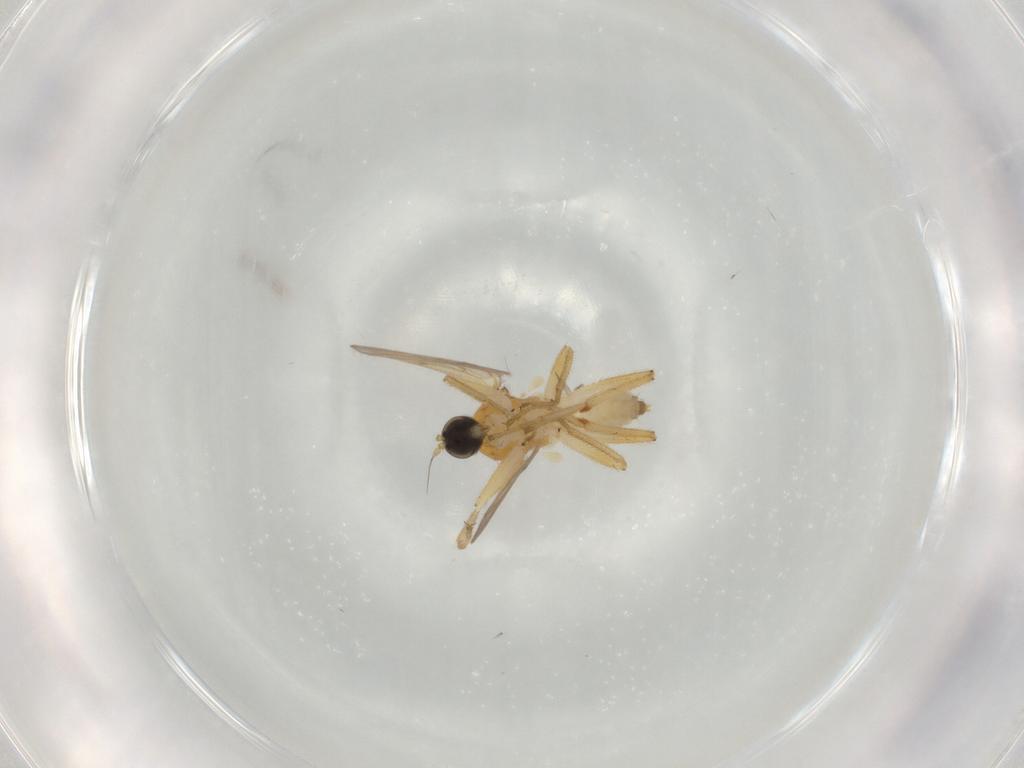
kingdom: Animalia
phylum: Arthropoda
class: Insecta
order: Diptera
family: Hybotidae
